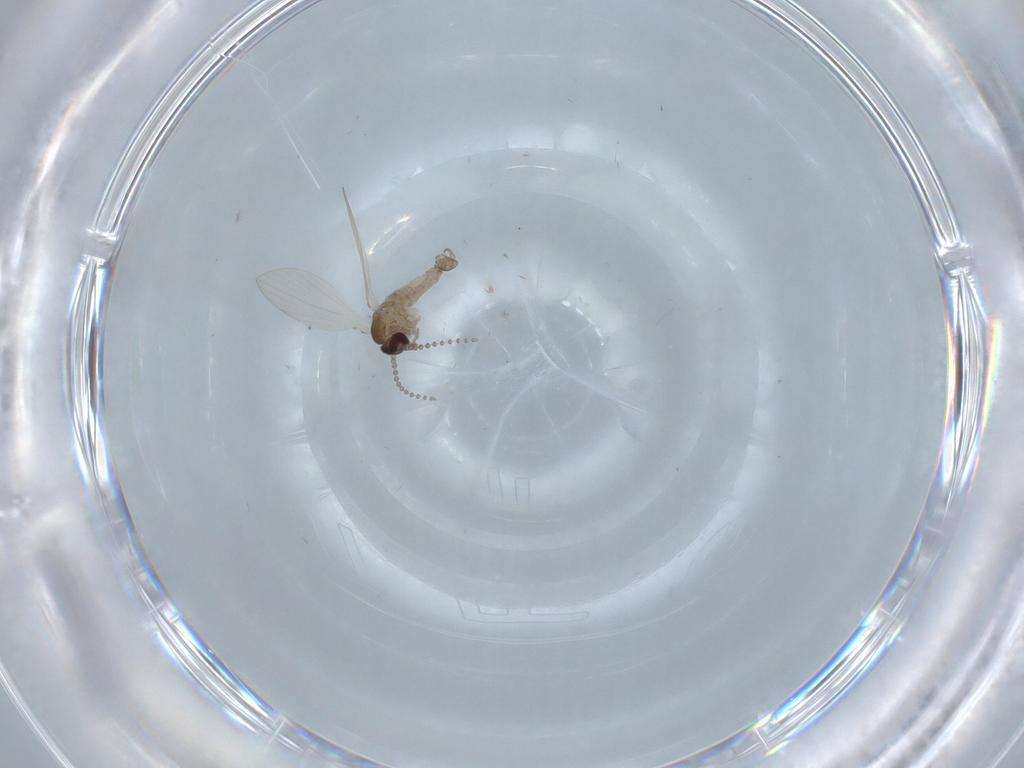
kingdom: Animalia
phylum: Arthropoda
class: Insecta
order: Diptera
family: Psychodidae
